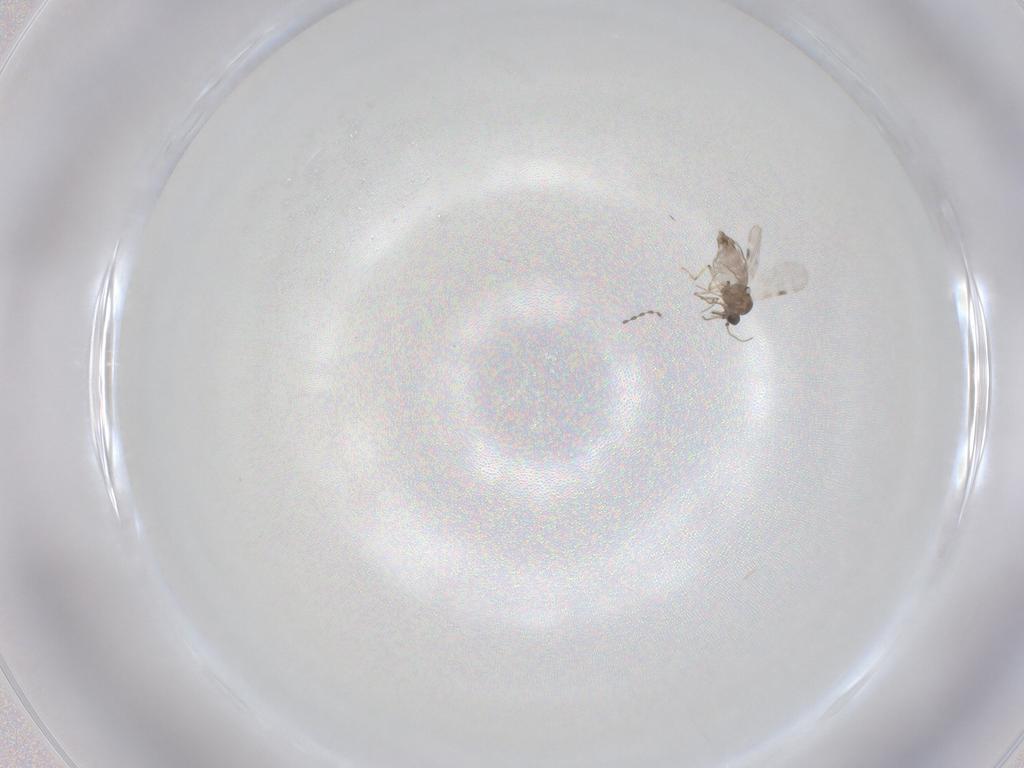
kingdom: Animalia
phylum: Arthropoda
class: Insecta
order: Diptera
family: Cecidomyiidae
